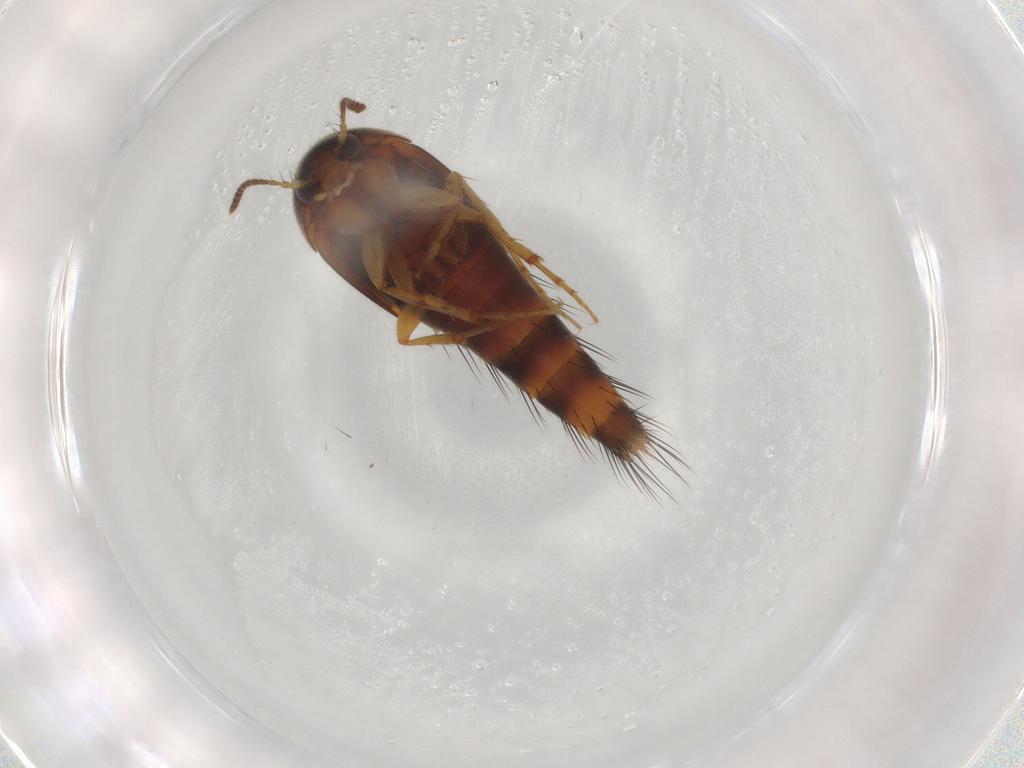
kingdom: Animalia
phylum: Arthropoda
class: Insecta
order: Coleoptera
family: Staphylinidae
